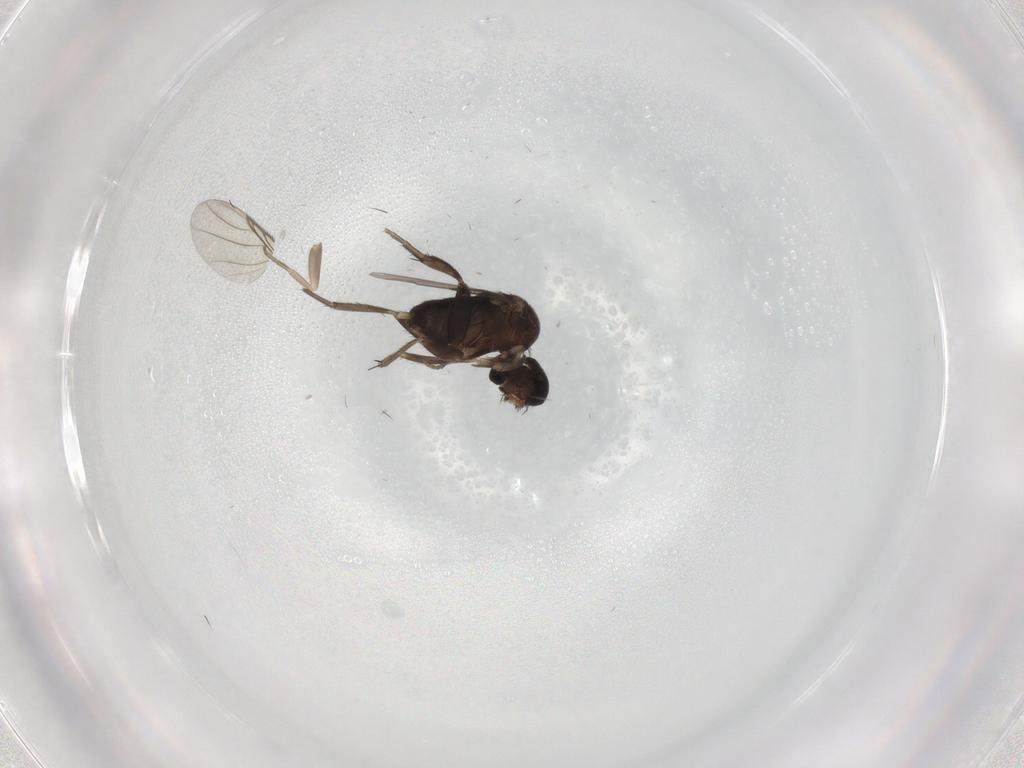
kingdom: Animalia
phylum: Arthropoda
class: Insecta
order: Diptera
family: Phoridae
